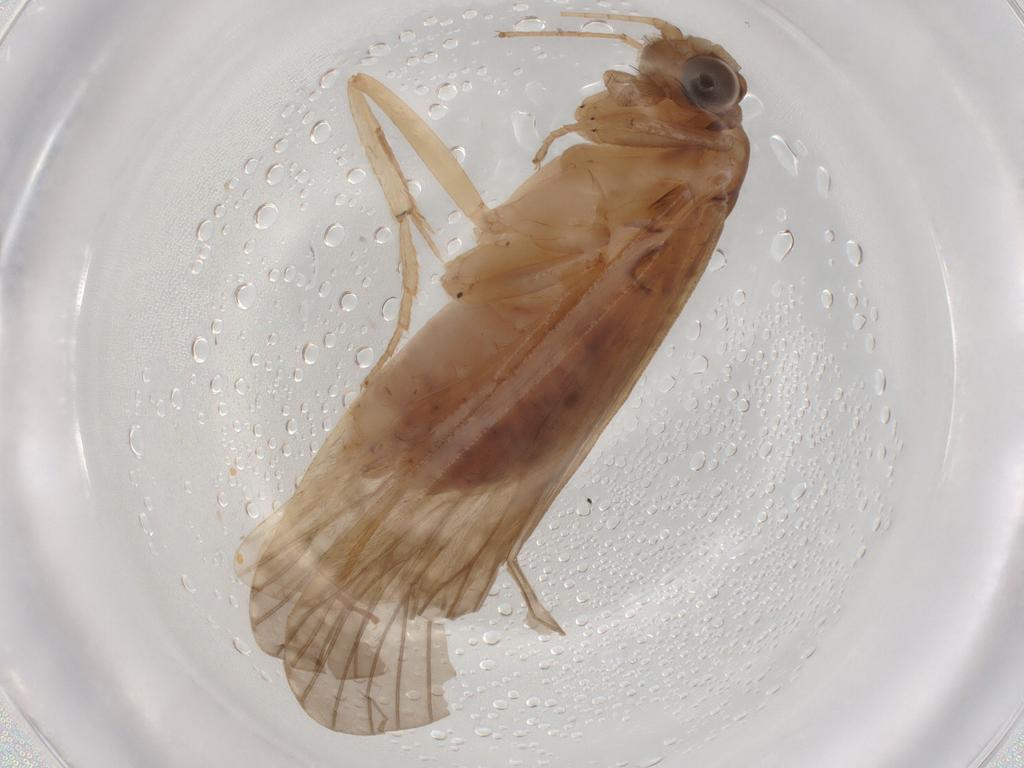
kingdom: Animalia
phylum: Arthropoda
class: Insecta
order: Trichoptera
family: Hydropsychidae
